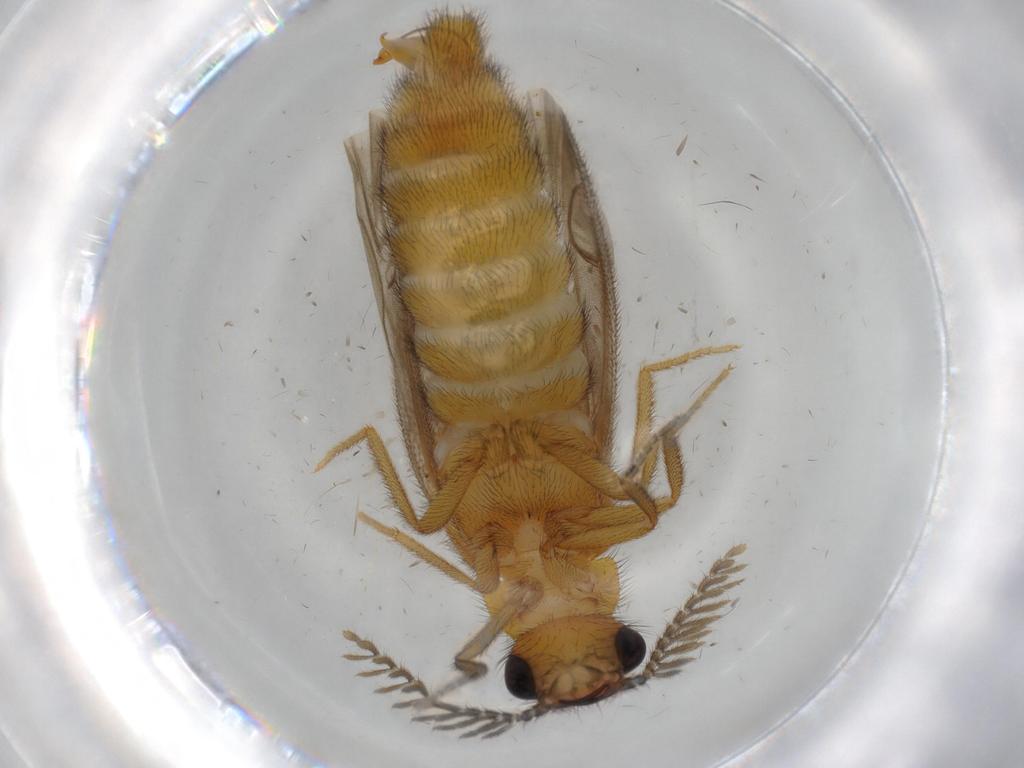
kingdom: Animalia
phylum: Arthropoda
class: Insecta
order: Coleoptera
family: Phengodidae
